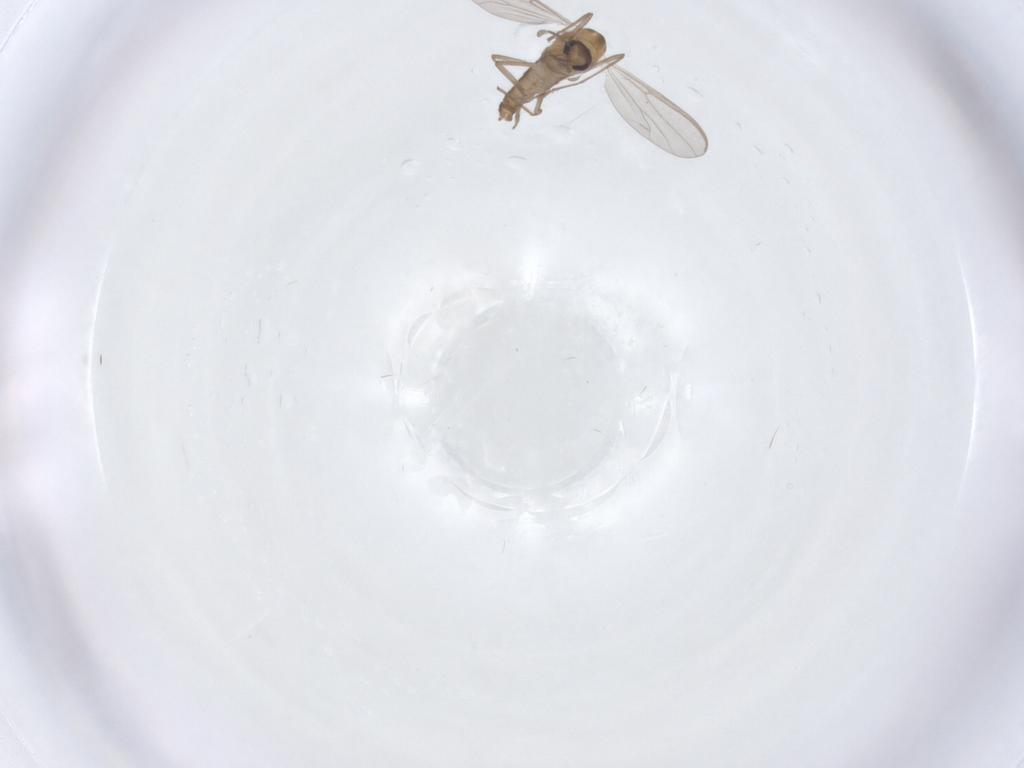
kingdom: Animalia
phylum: Arthropoda
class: Insecta
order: Diptera
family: Chironomidae
